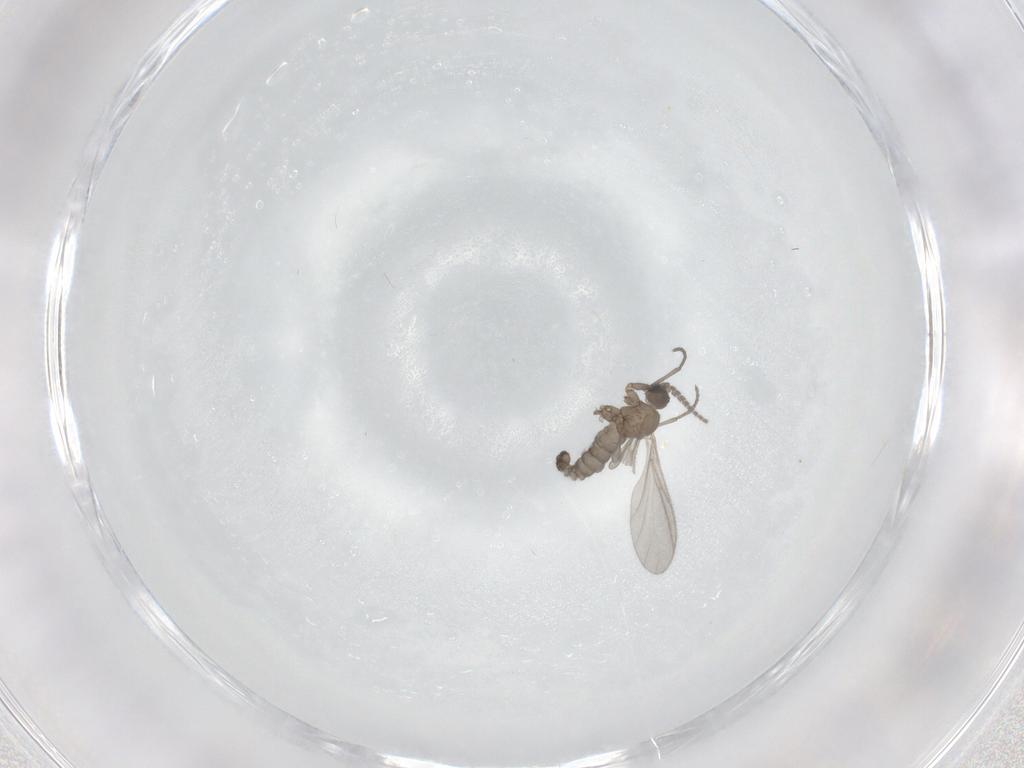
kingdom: Animalia
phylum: Arthropoda
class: Insecta
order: Diptera
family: Sciaridae
